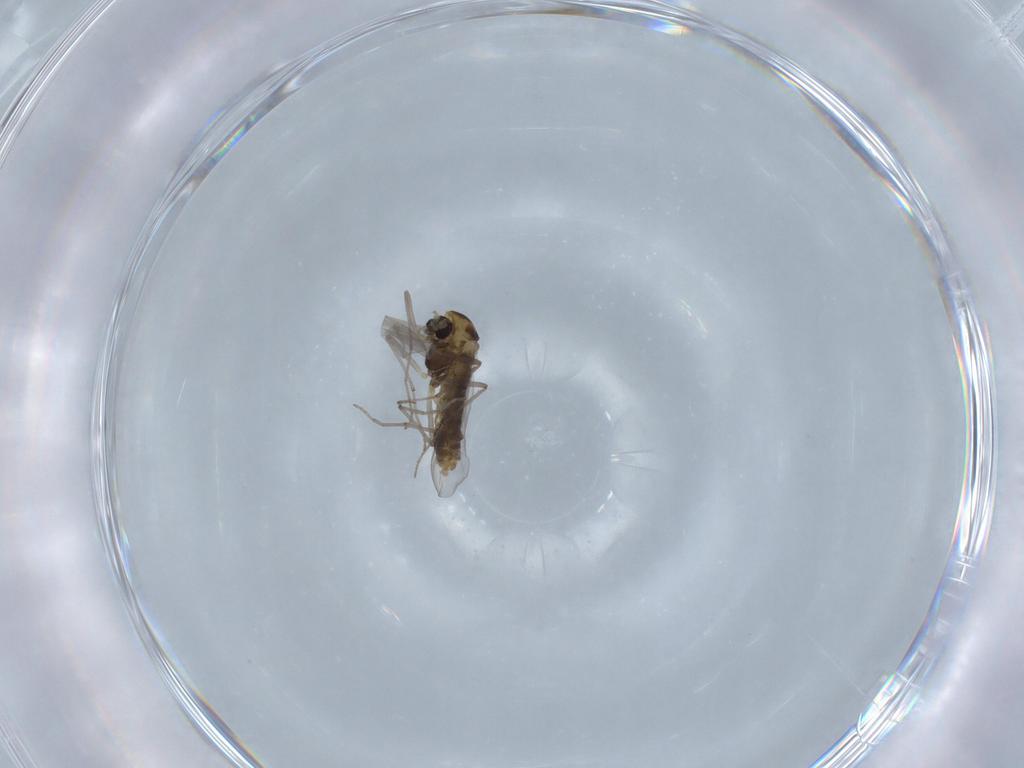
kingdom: Animalia
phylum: Arthropoda
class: Insecta
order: Diptera
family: Chironomidae
